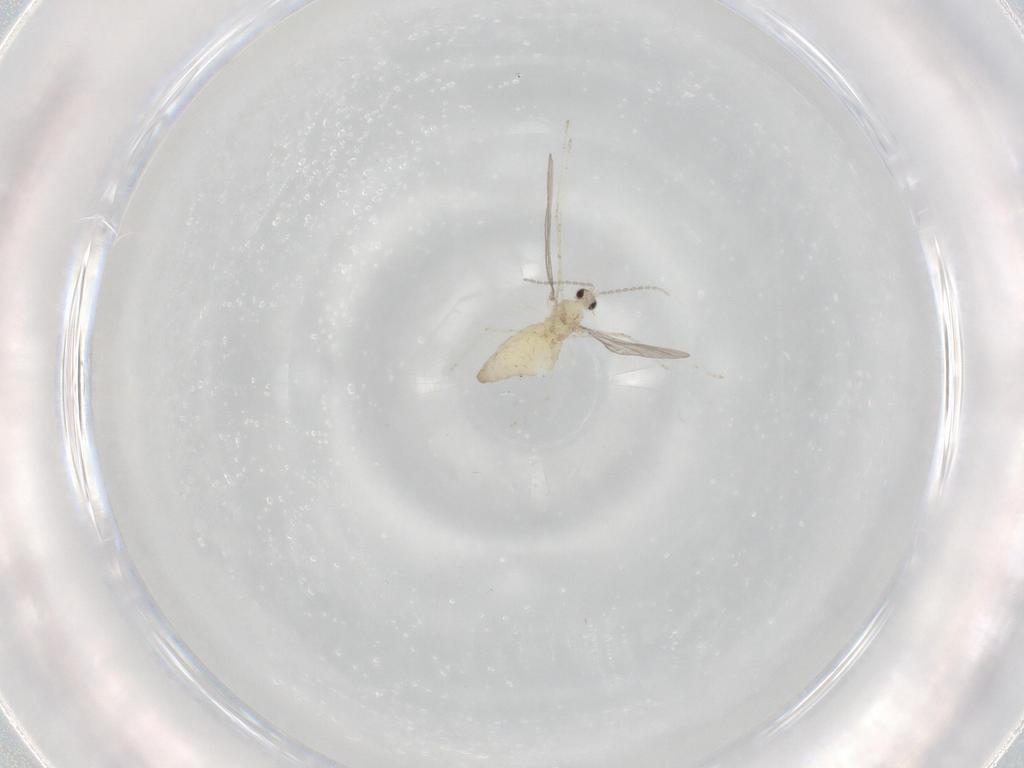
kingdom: Animalia
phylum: Arthropoda
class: Insecta
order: Diptera
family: Cecidomyiidae
